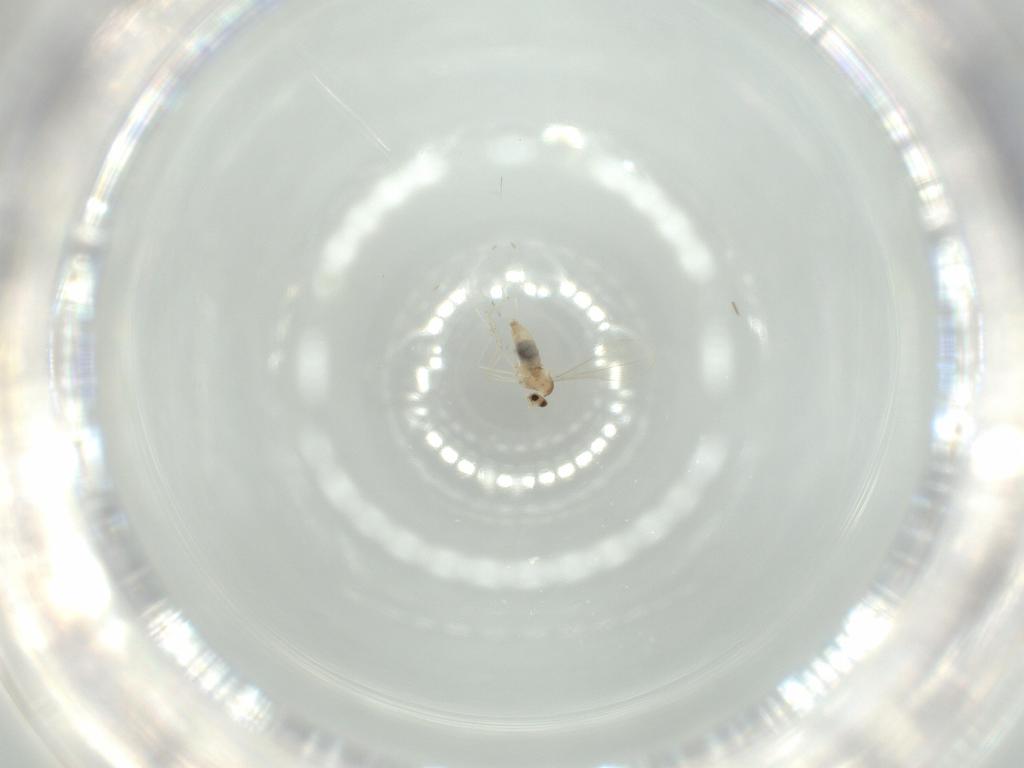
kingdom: Animalia
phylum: Arthropoda
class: Insecta
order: Diptera
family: Cecidomyiidae
